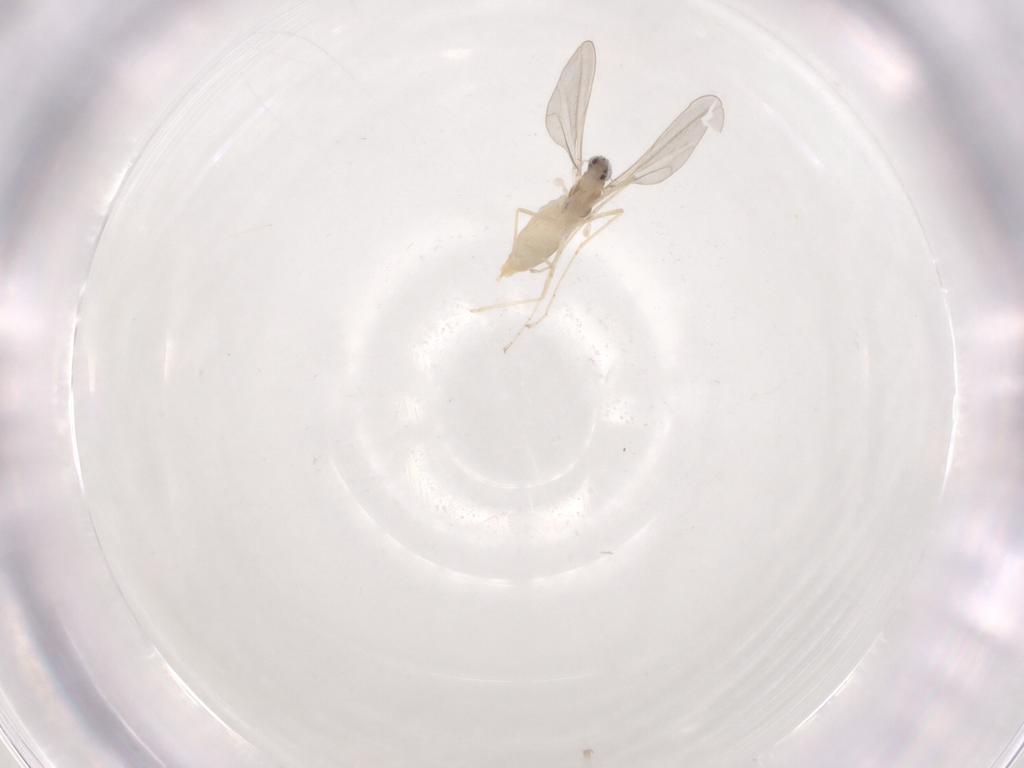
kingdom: Animalia
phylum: Arthropoda
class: Insecta
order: Diptera
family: Cecidomyiidae
